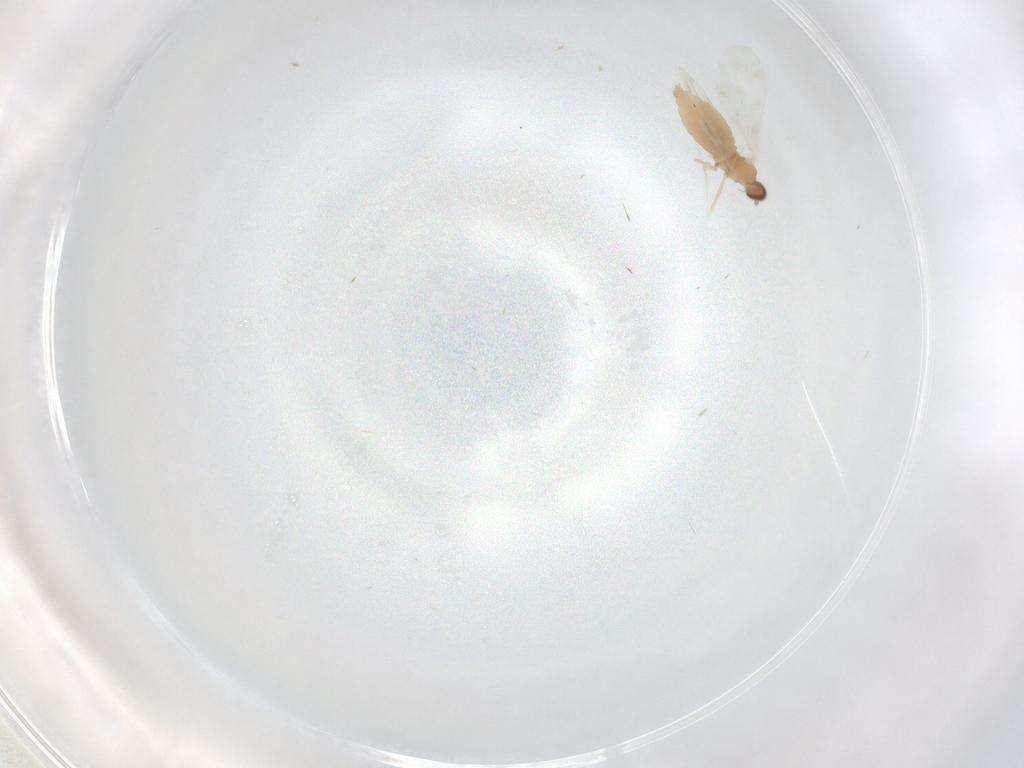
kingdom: Animalia
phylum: Arthropoda
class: Insecta
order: Diptera
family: Cecidomyiidae
